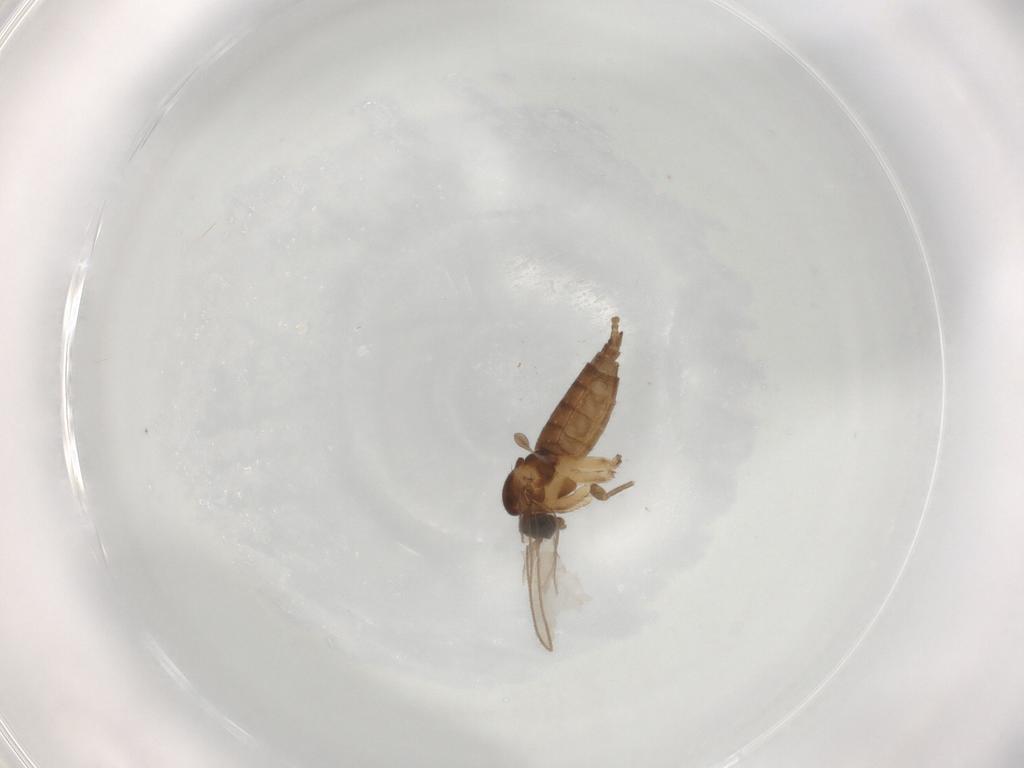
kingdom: Animalia
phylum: Arthropoda
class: Insecta
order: Diptera
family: Sciaridae
